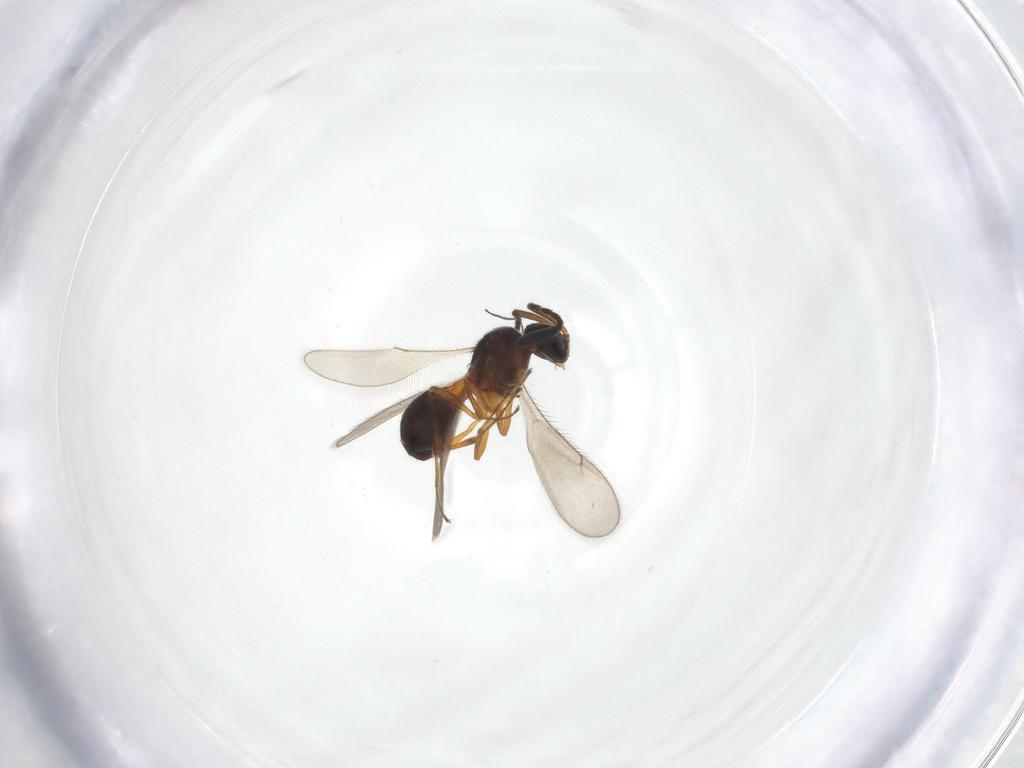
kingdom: Animalia
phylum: Arthropoda
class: Insecta
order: Hymenoptera
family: Scelionidae
